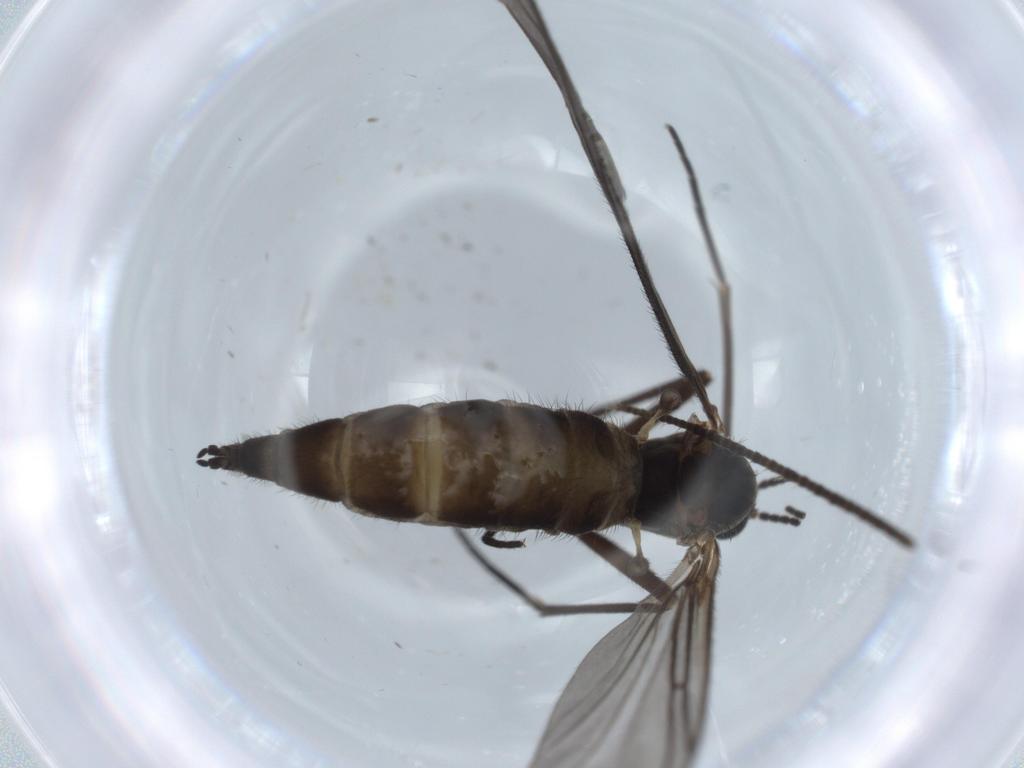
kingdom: Animalia
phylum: Arthropoda
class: Insecta
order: Diptera
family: Sciaridae
